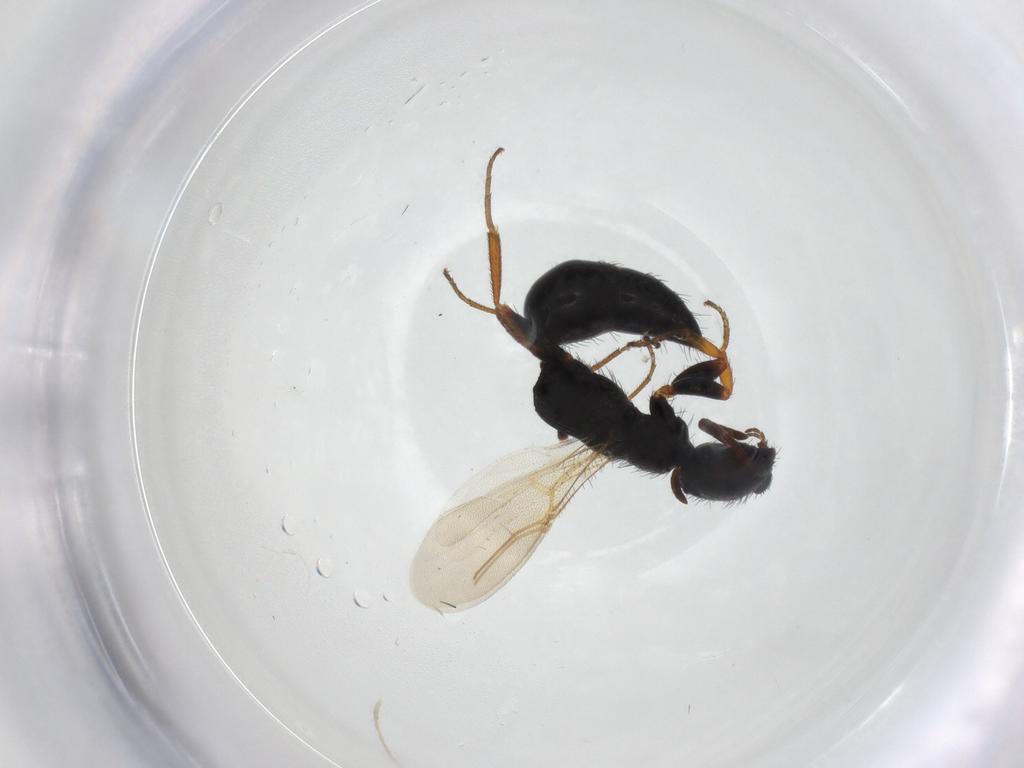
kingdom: Animalia
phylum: Arthropoda
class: Insecta
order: Hymenoptera
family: Bethylidae
